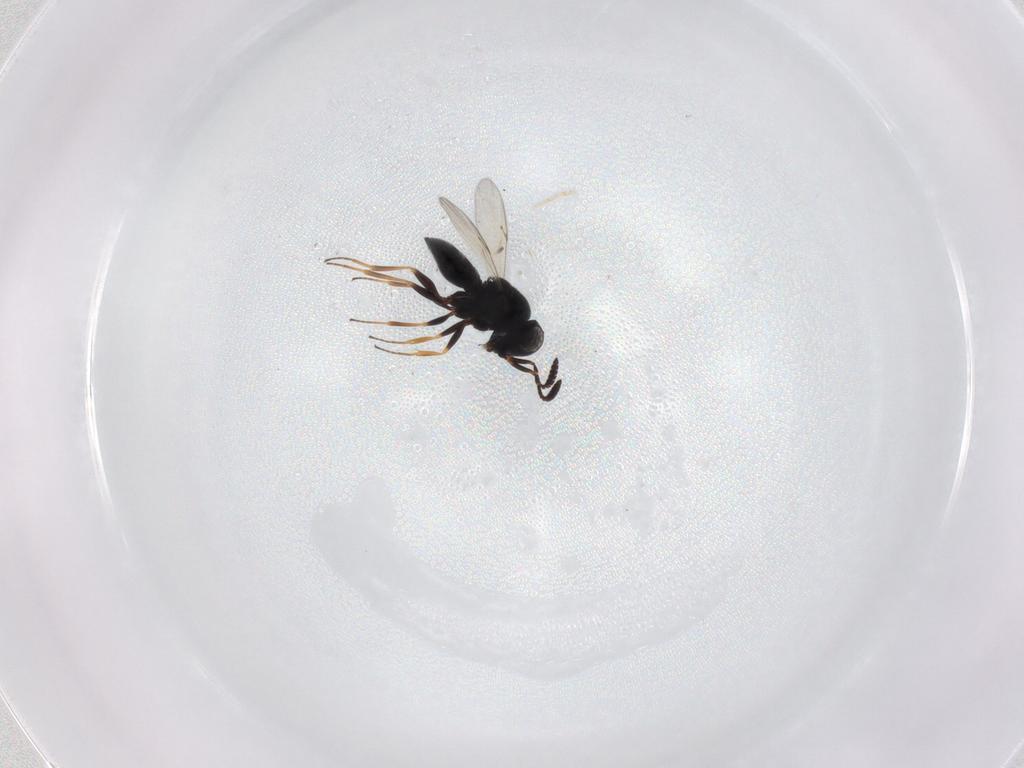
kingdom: Animalia
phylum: Arthropoda
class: Insecta
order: Hymenoptera
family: Scelionidae
